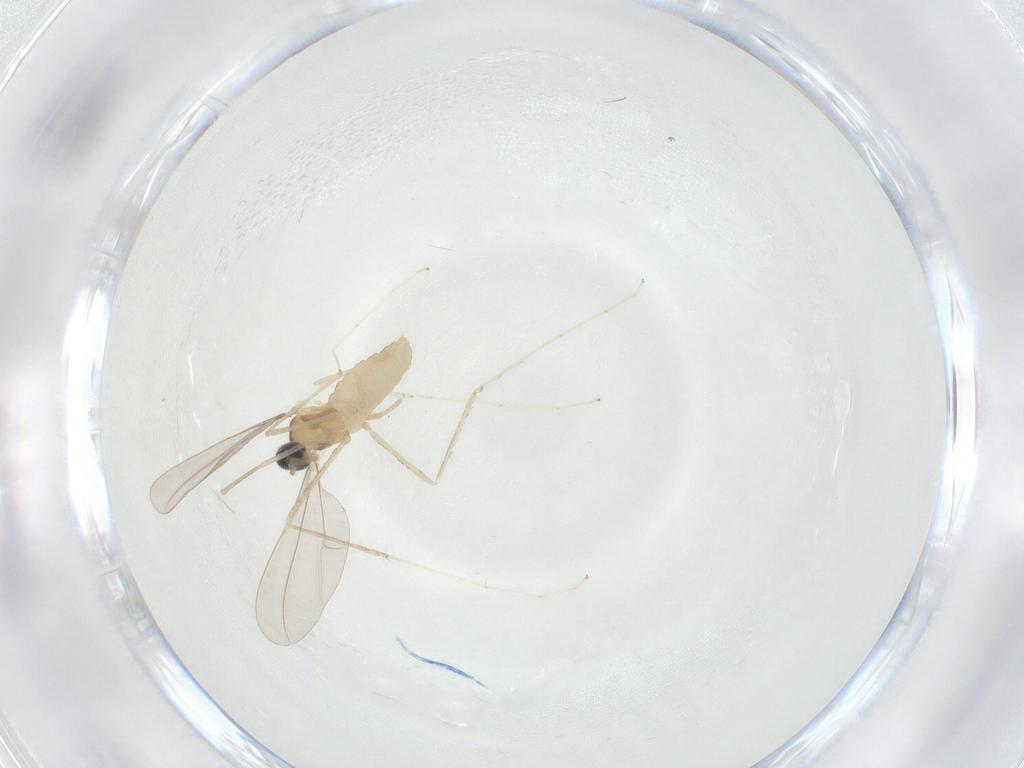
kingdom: Animalia
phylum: Arthropoda
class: Insecta
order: Diptera
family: Cecidomyiidae
